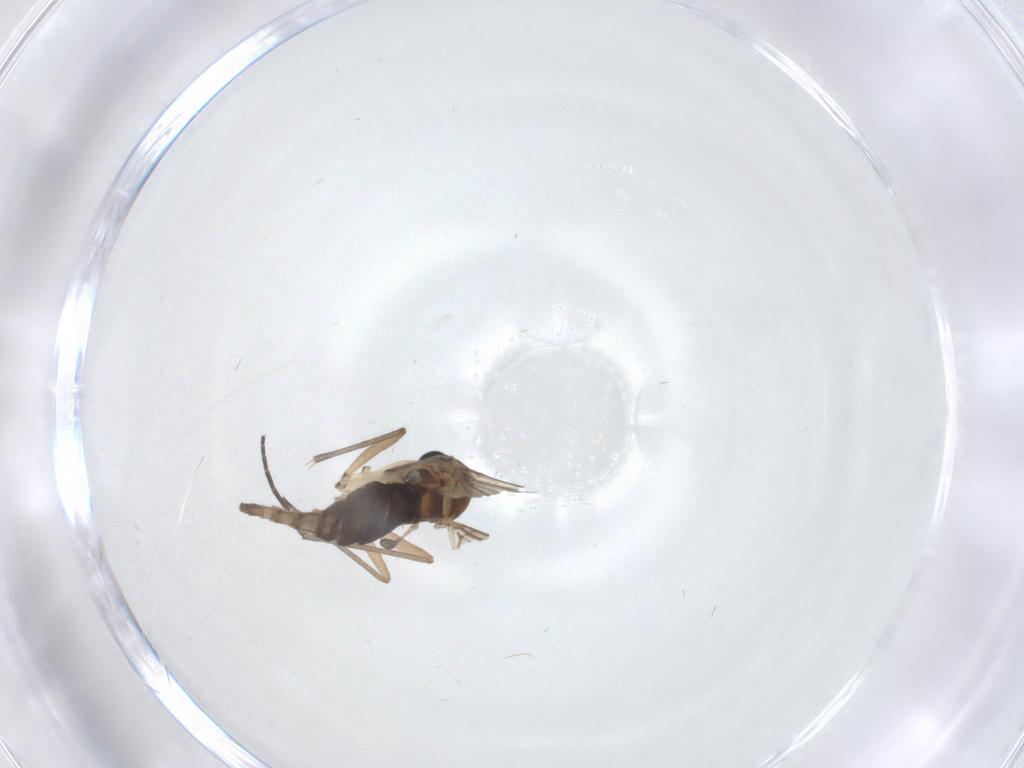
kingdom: Animalia
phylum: Arthropoda
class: Insecta
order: Diptera
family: Sciaridae
